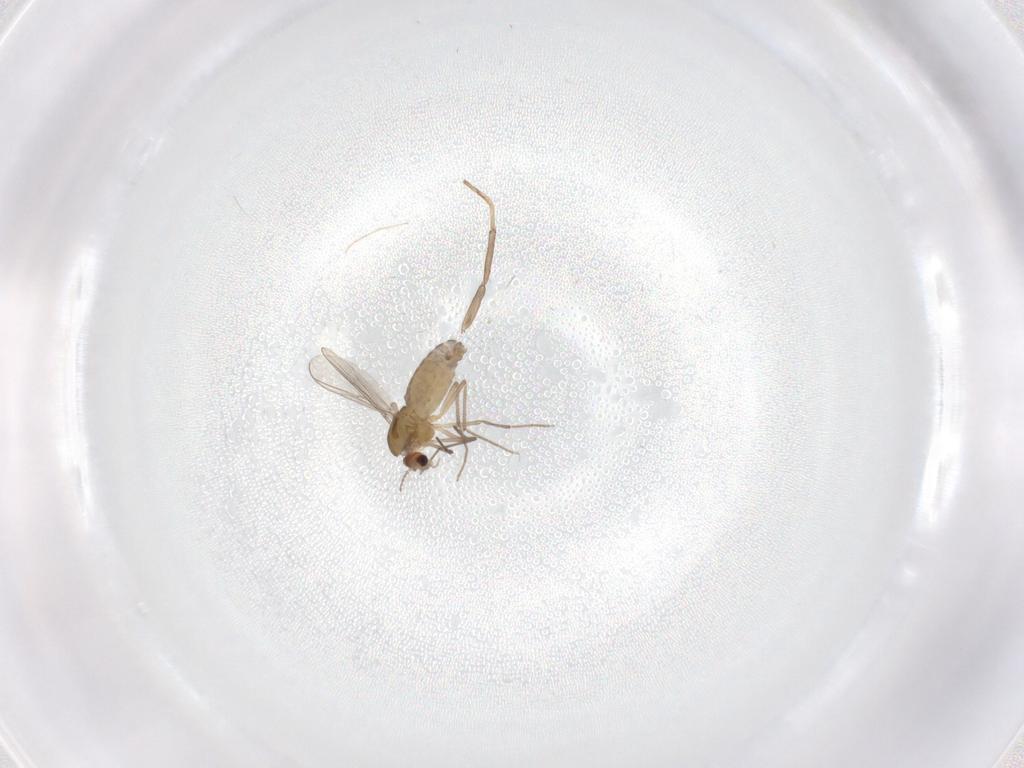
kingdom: Animalia
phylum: Arthropoda
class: Insecta
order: Diptera
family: Chironomidae
